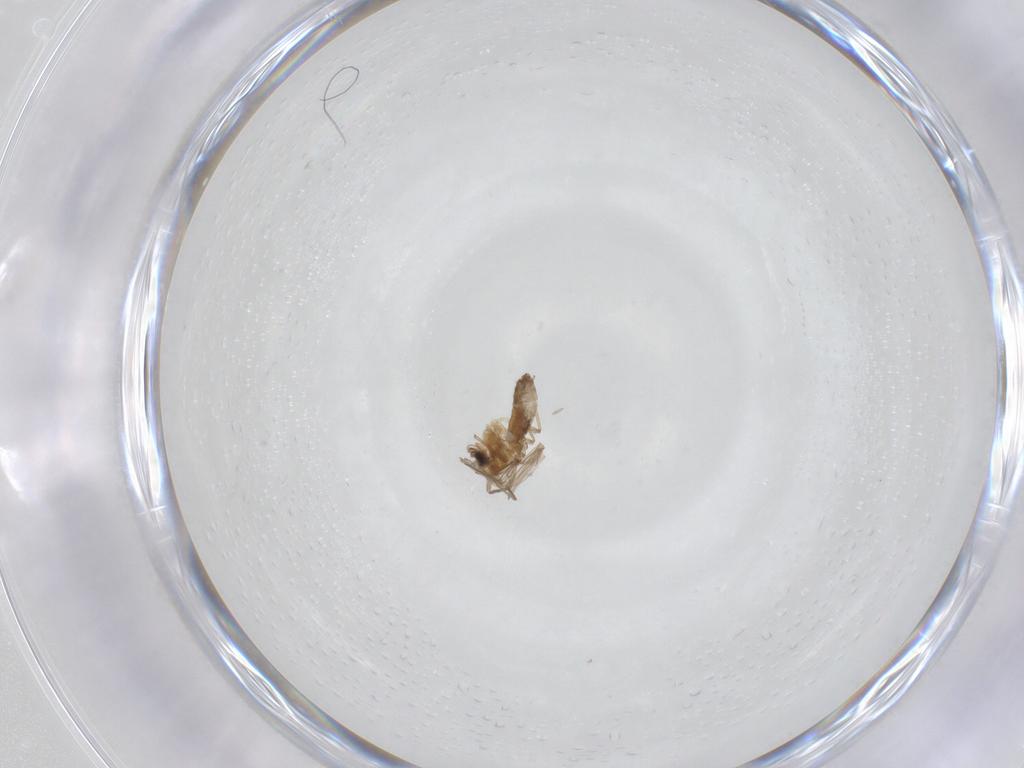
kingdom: Animalia
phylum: Arthropoda
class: Insecta
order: Diptera
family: Chironomidae
